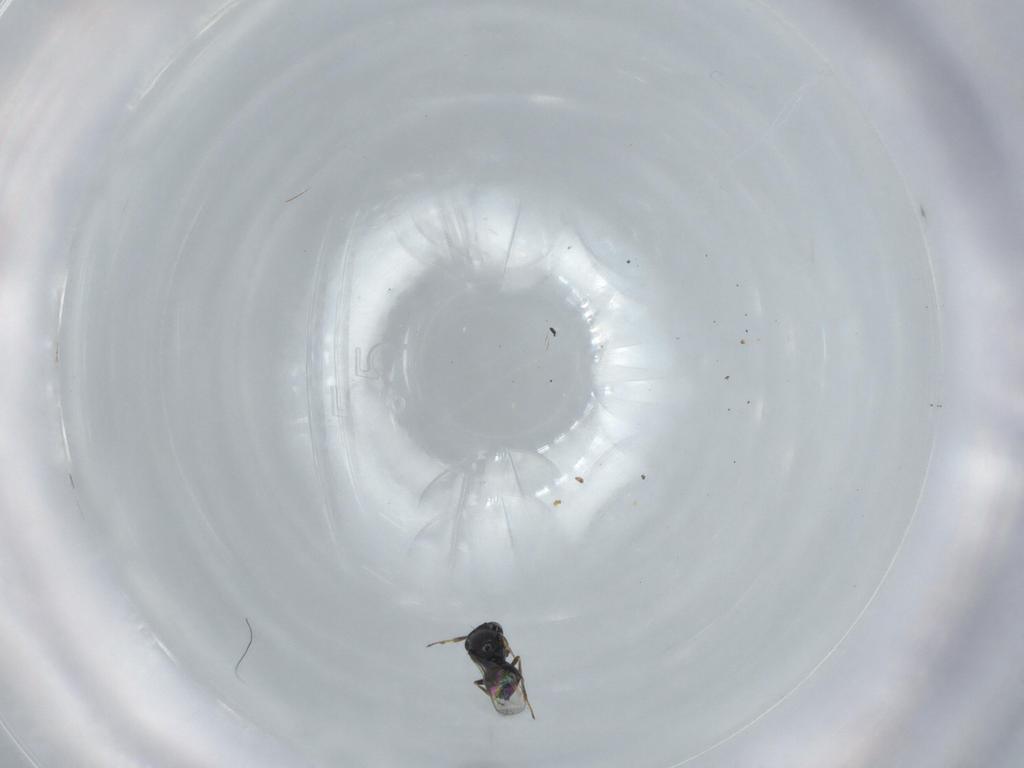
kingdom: Animalia
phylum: Arthropoda
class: Insecta
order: Hymenoptera
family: Scelionidae
